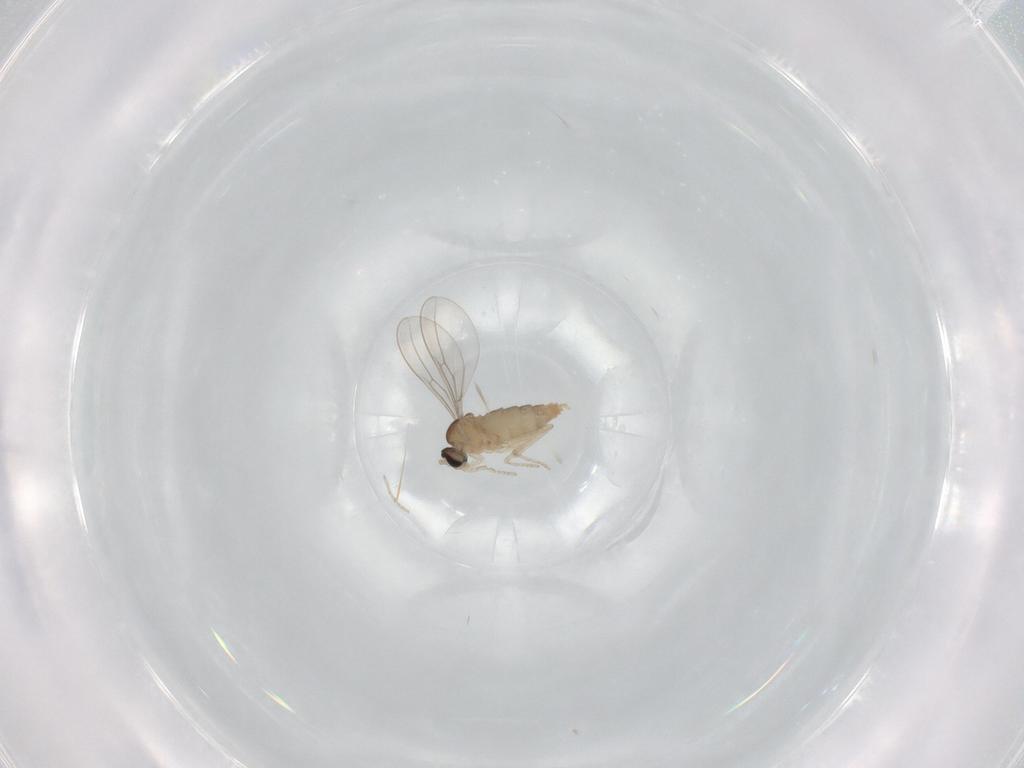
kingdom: Animalia
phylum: Arthropoda
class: Insecta
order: Diptera
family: Cecidomyiidae
